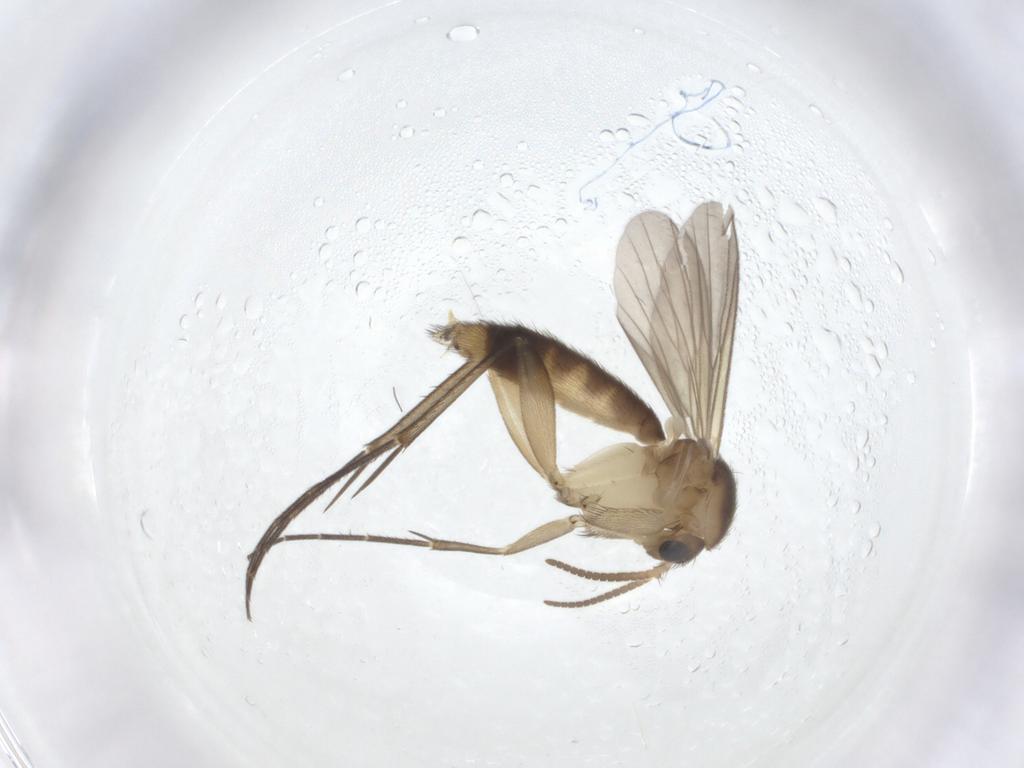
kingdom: Animalia
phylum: Arthropoda
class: Insecta
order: Diptera
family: Mycetophilidae
